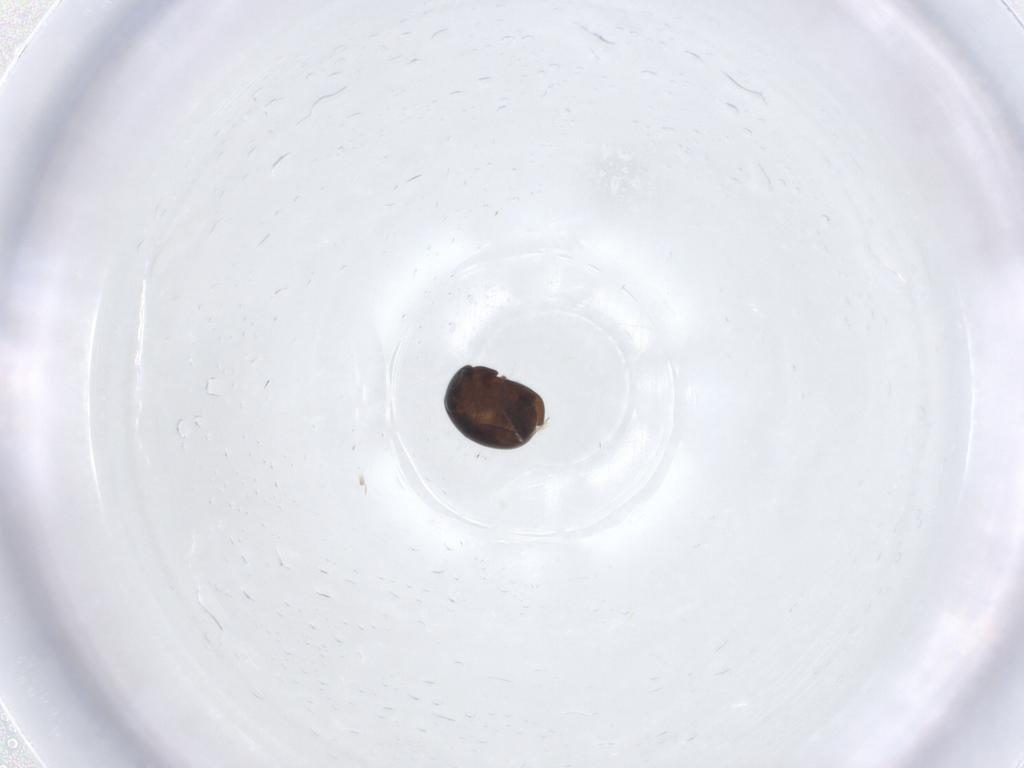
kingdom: Animalia
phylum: Arthropoda
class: Insecta
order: Coleoptera
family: Cybocephalidae
